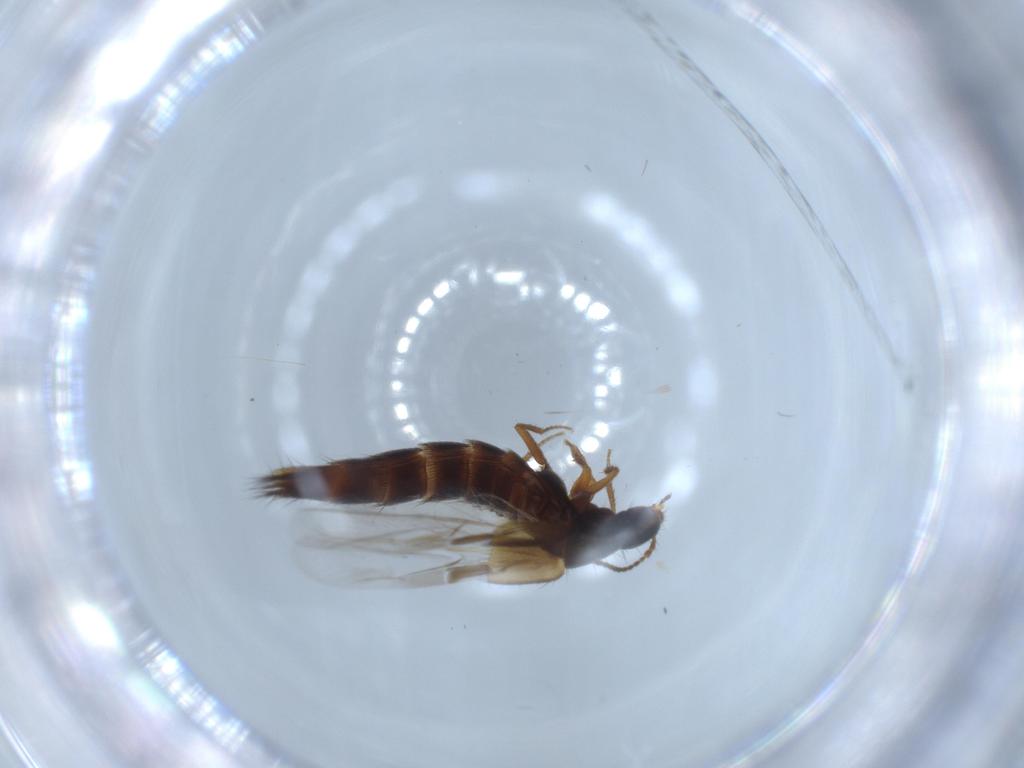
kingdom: Animalia
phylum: Arthropoda
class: Insecta
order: Coleoptera
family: Staphylinidae
